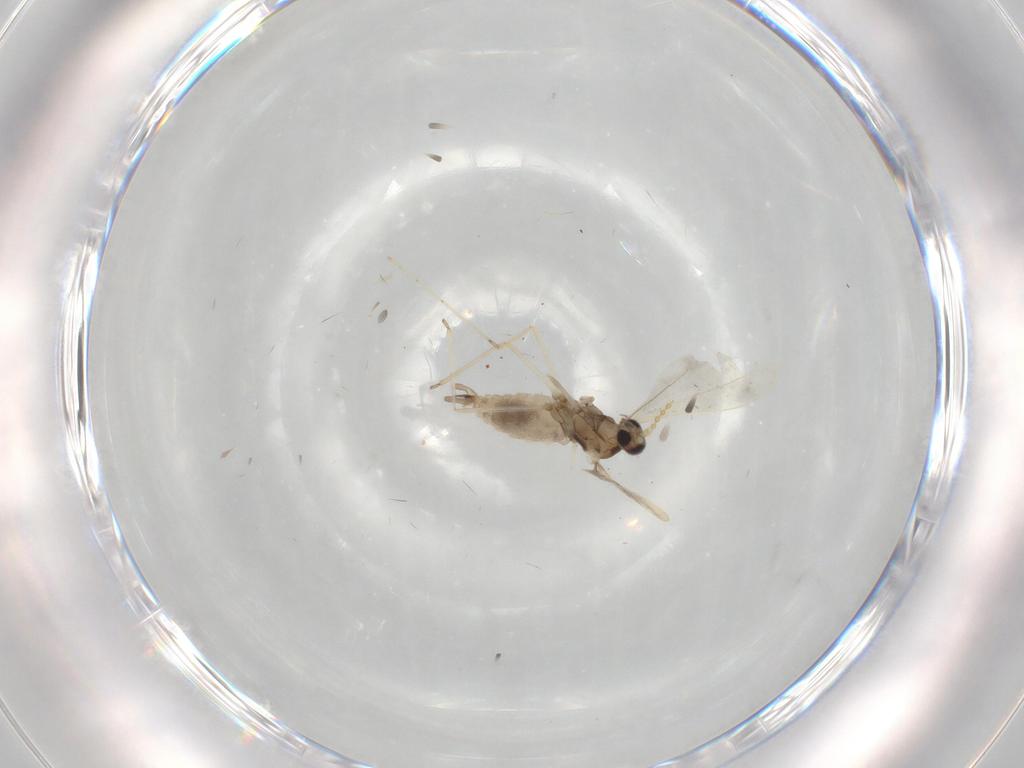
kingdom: Animalia
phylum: Arthropoda
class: Insecta
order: Diptera
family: Cecidomyiidae
